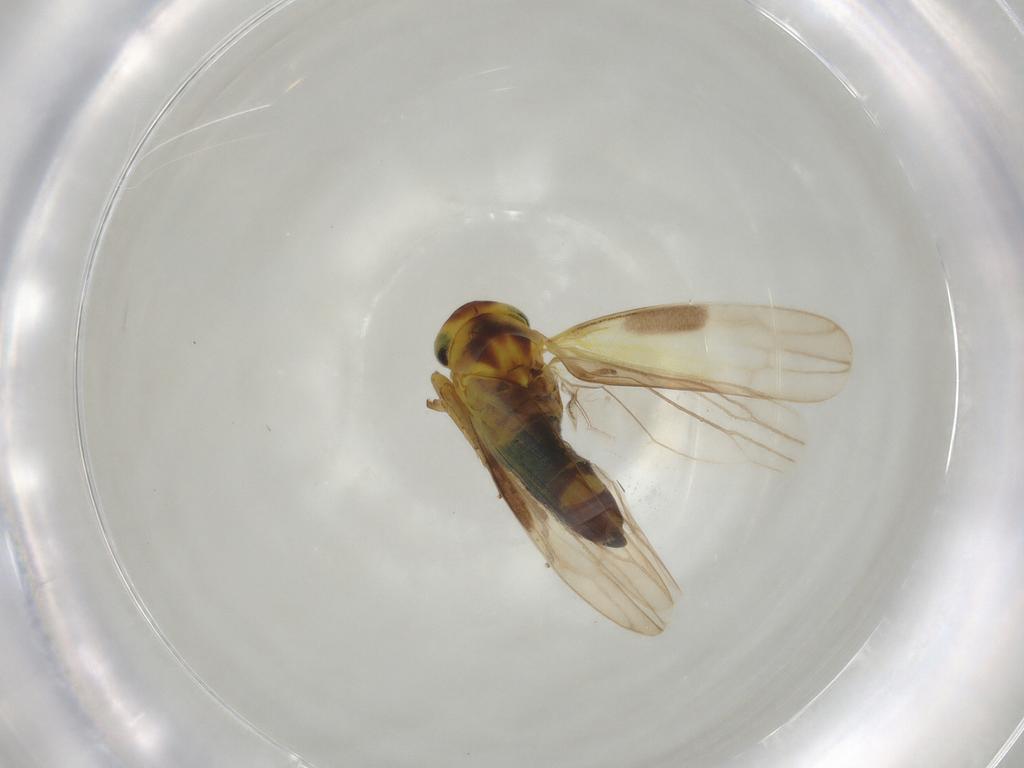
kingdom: Animalia
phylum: Arthropoda
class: Insecta
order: Hemiptera
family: Cicadellidae
